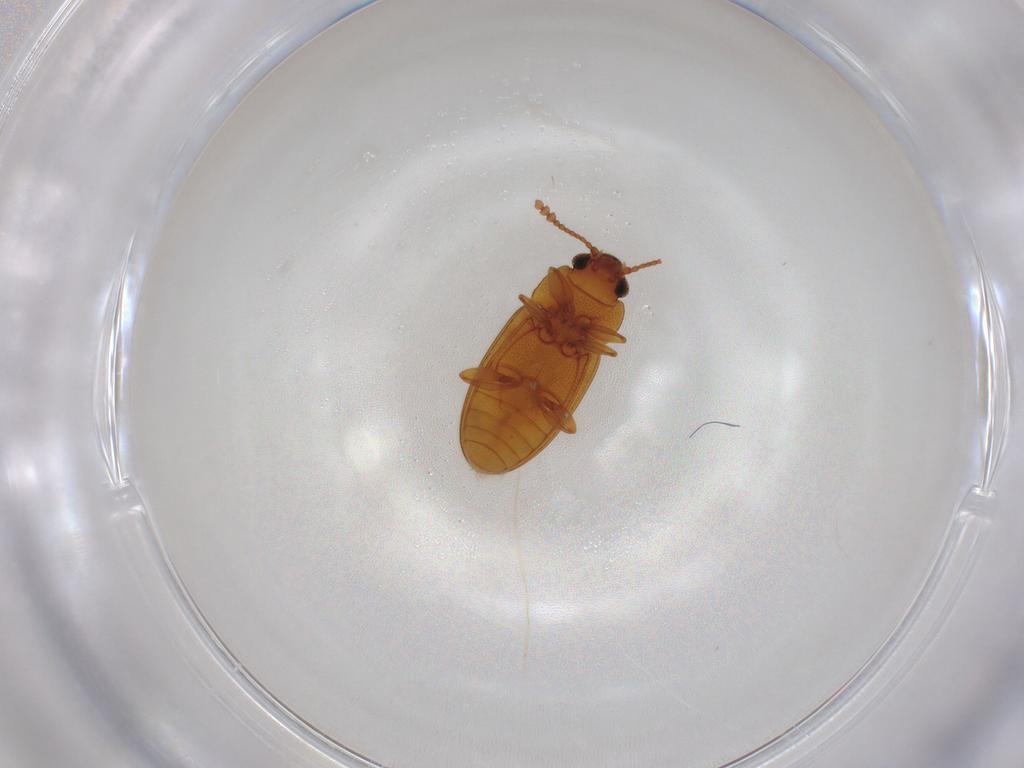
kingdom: Animalia
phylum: Arthropoda
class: Insecta
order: Coleoptera
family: Erotylidae
